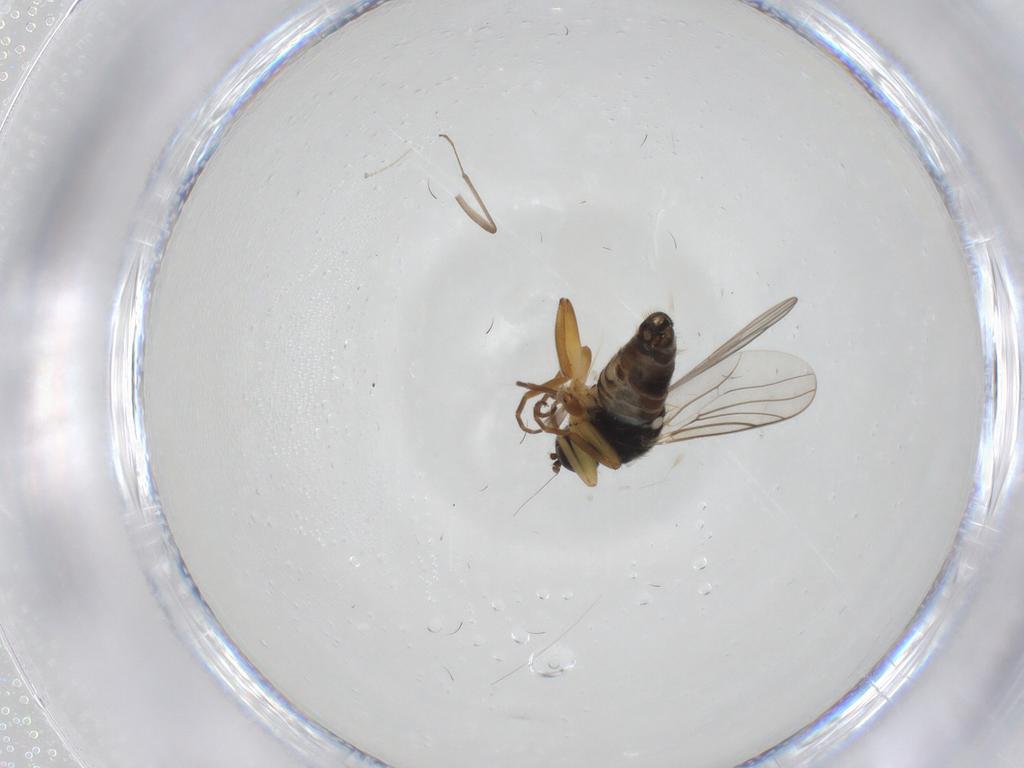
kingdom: Animalia
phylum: Arthropoda
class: Insecta
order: Diptera
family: Hybotidae
